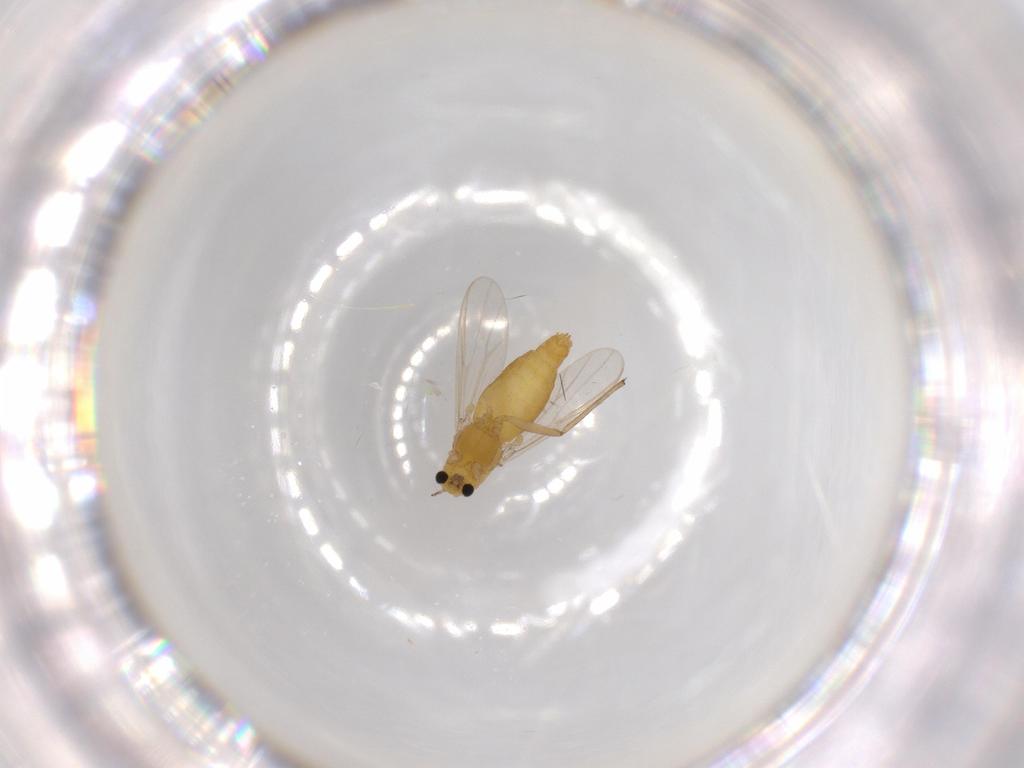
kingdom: Animalia
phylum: Arthropoda
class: Insecta
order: Diptera
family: Chironomidae
